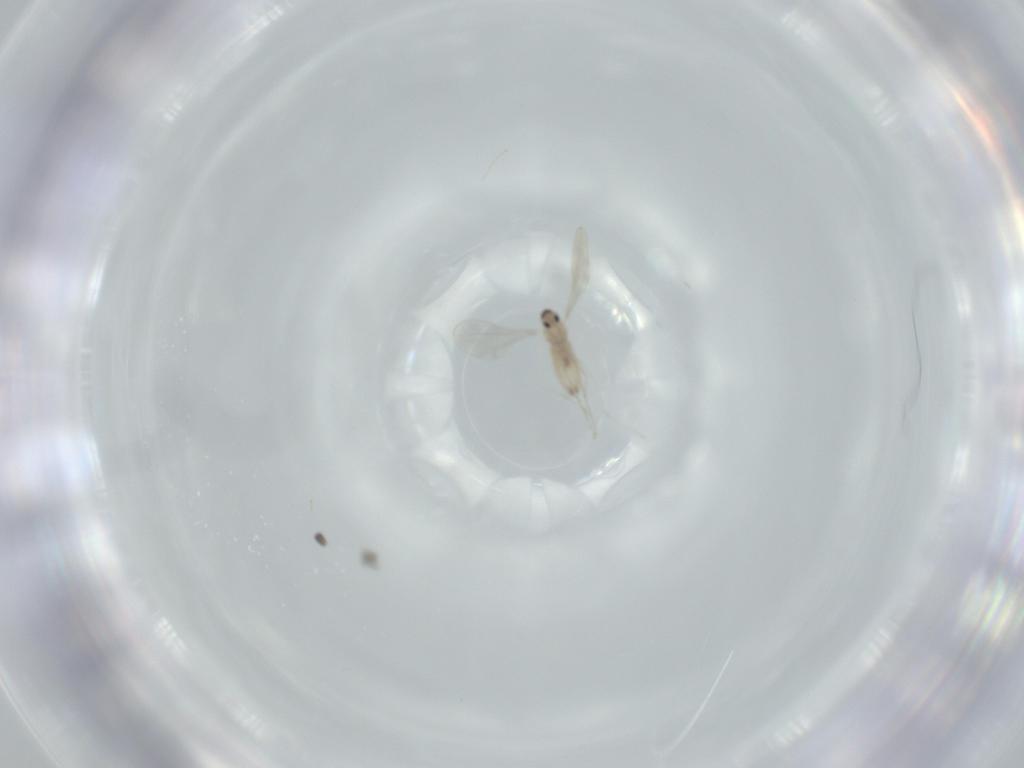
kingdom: Animalia
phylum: Arthropoda
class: Insecta
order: Diptera
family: Cecidomyiidae
